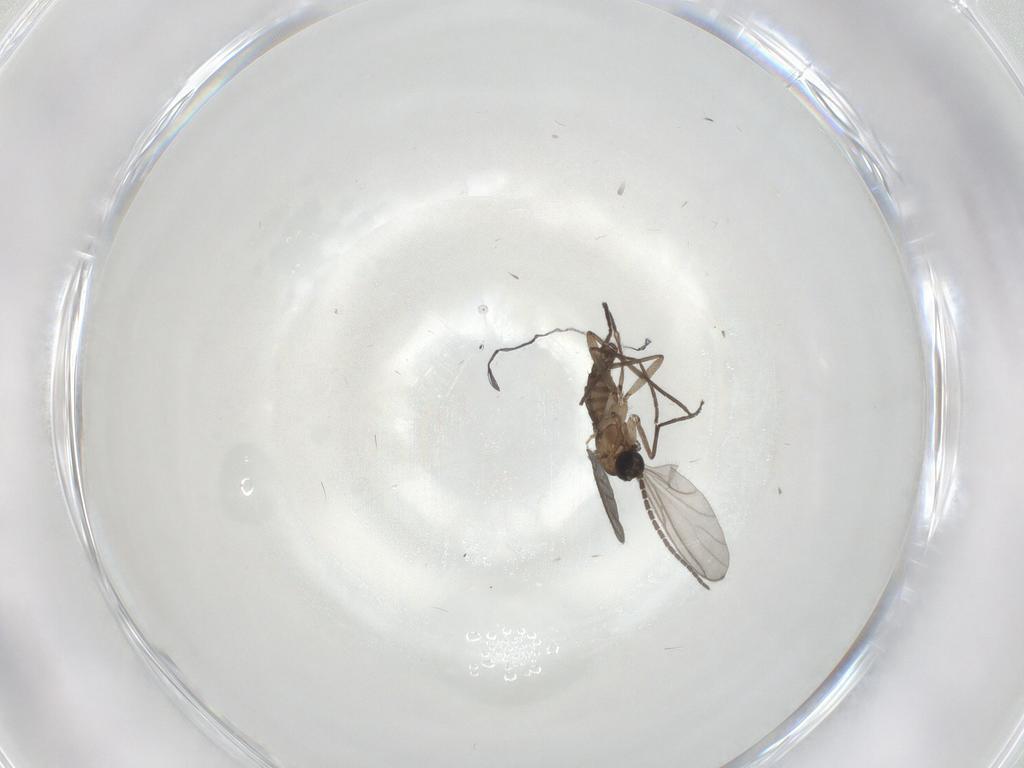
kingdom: Animalia
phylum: Arthropoda
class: Insecta
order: Diptera
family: Sciaridae
